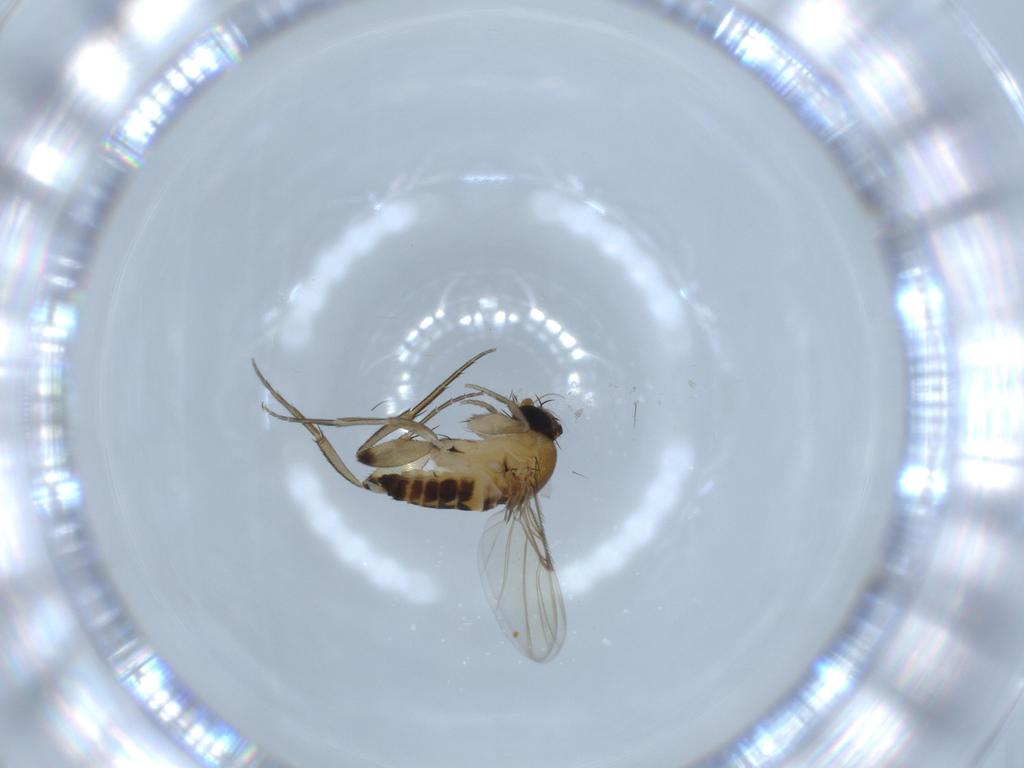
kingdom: Animalia
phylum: Arthropoda
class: Insecta
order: Diptera
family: Phoridae
